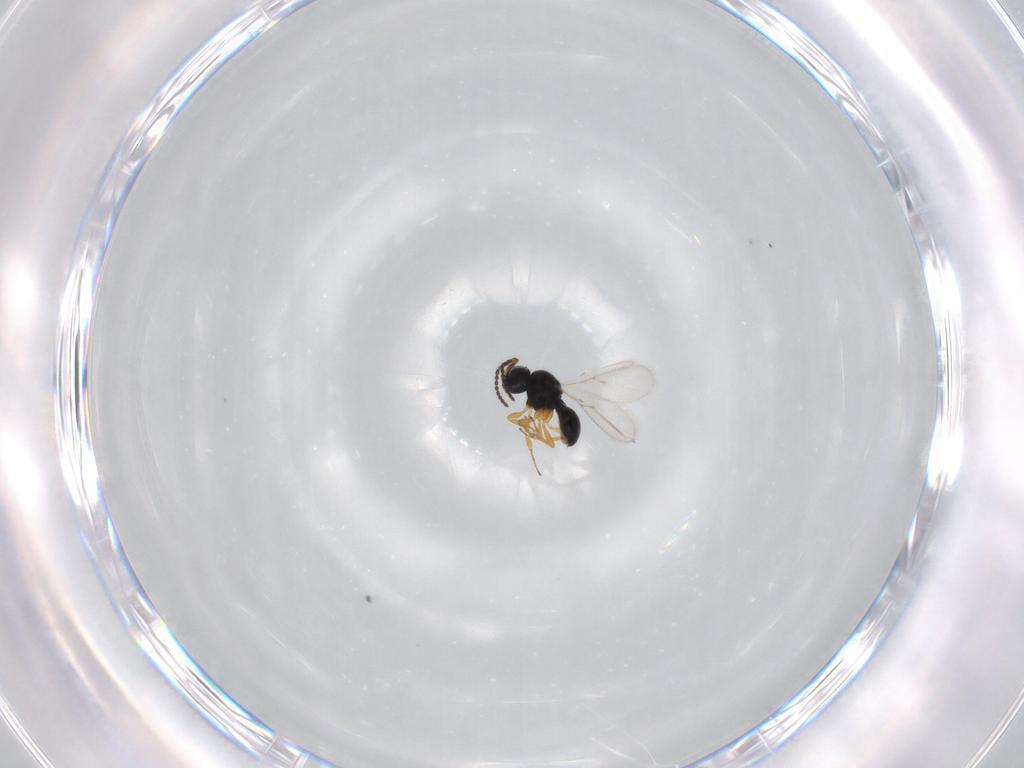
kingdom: Animalia
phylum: Arthropoda
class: Insecta
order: Hymenoptera
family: Scelionidae
